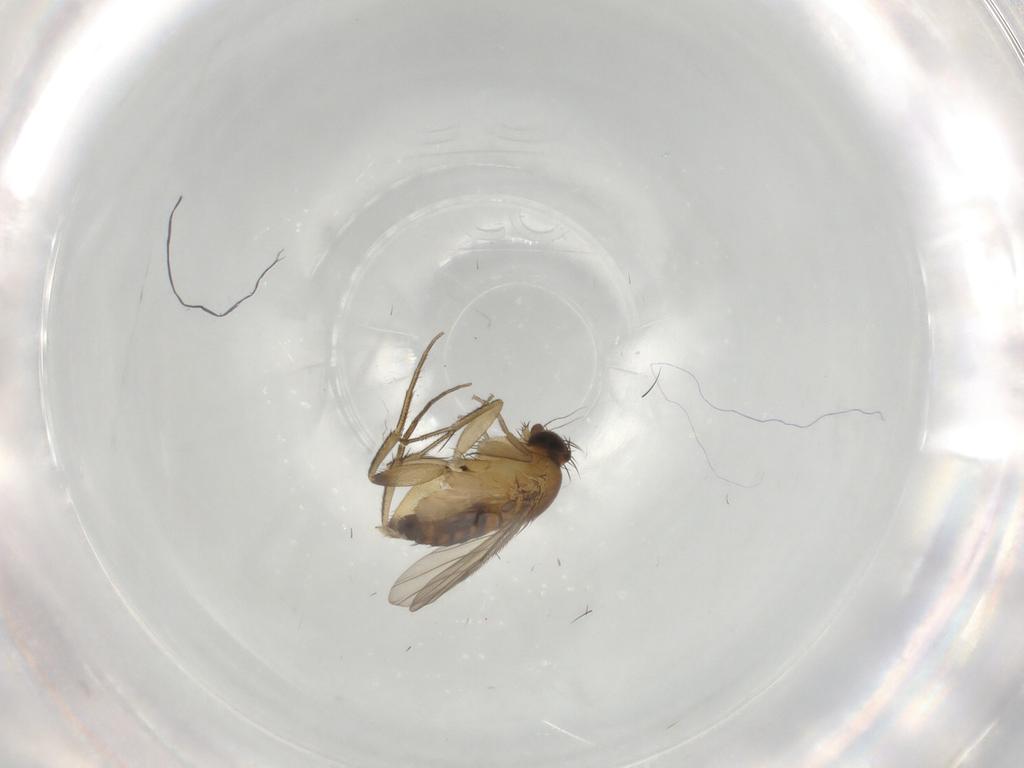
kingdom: Animalia
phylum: Arthropoda
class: Insecta
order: Diptera
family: Phoridae
